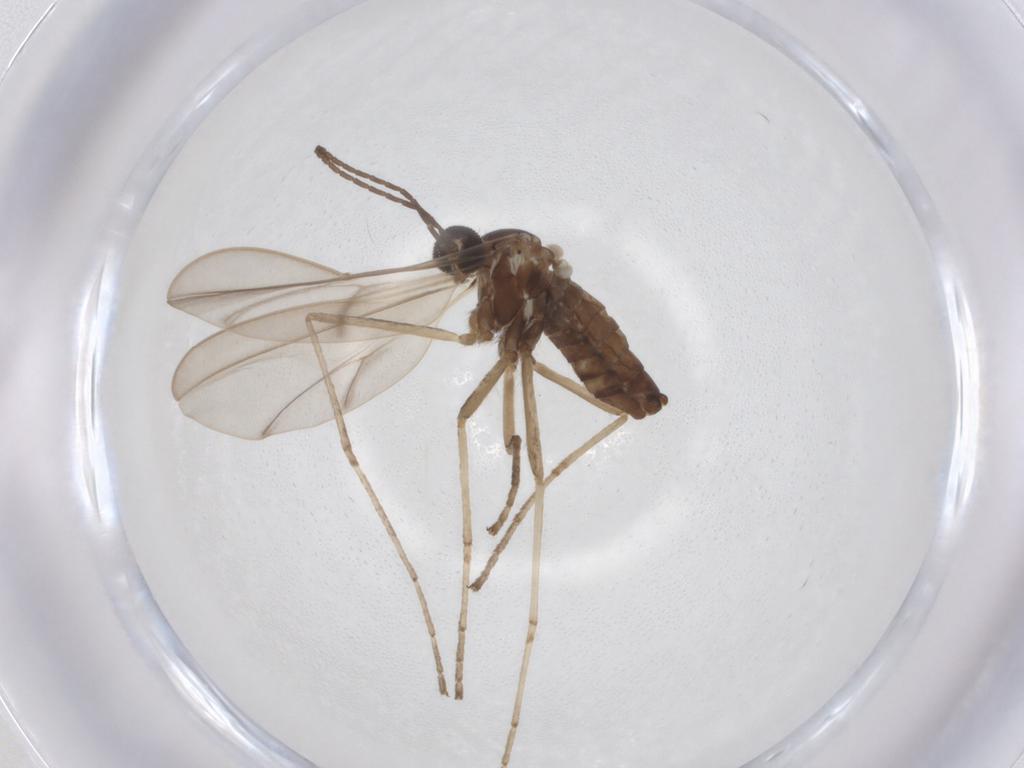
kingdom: Animalia
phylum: Arthropoda
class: Insecta
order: Diptera
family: Cecidomyiidae
